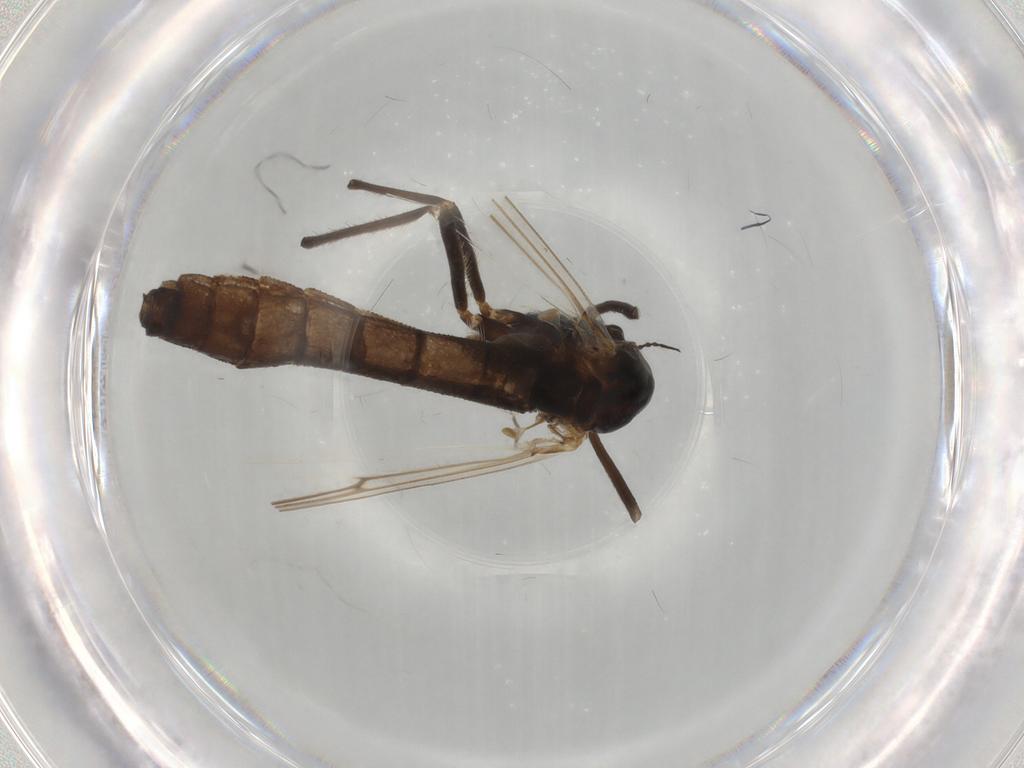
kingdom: Animalia
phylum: Arthropoda
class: Insecta
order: Diptera
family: Chironomidae
